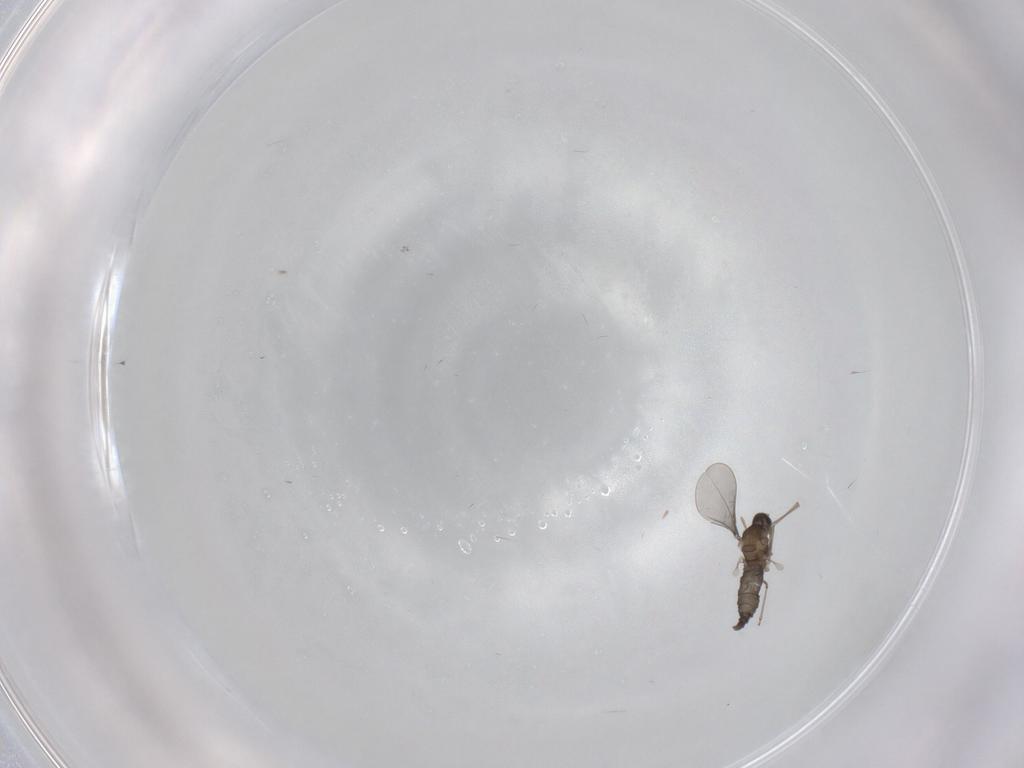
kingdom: Animalia
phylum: Arthropoda
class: Insecta
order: Diptera
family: Cecidomyiidae
